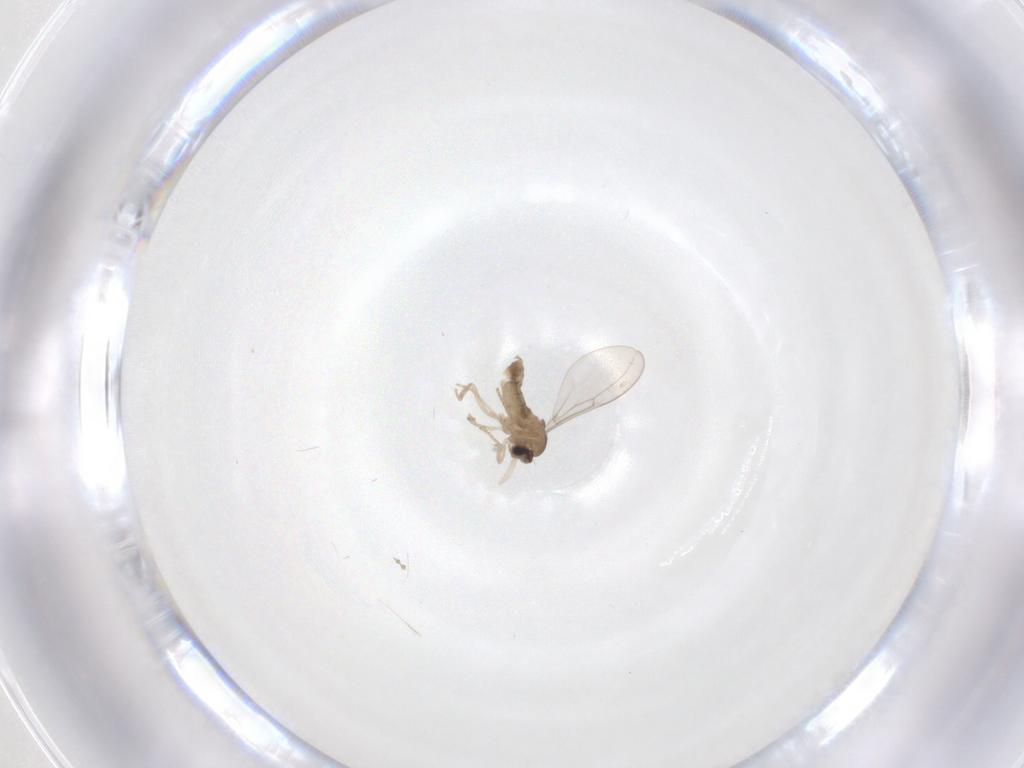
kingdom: Animalia
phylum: Arthropoda
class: Insecta
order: Diptera
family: Cecidomyiidae
